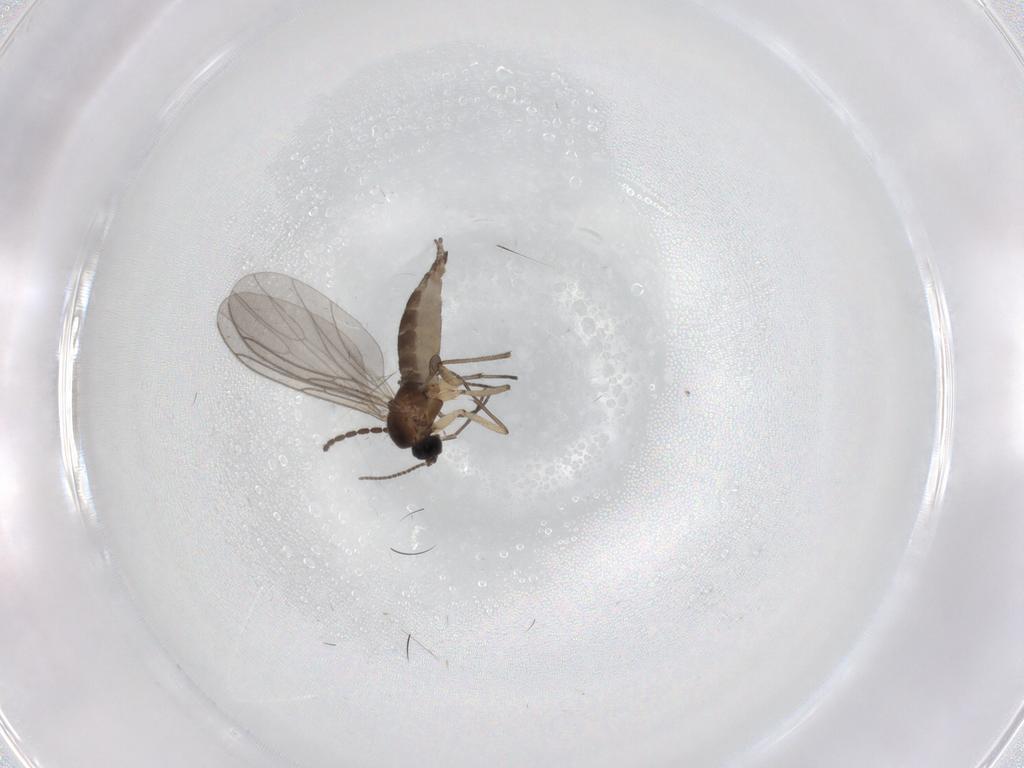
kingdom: Animalia
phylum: Arthropoda
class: Insecta
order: Diptera
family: Sciaridae
